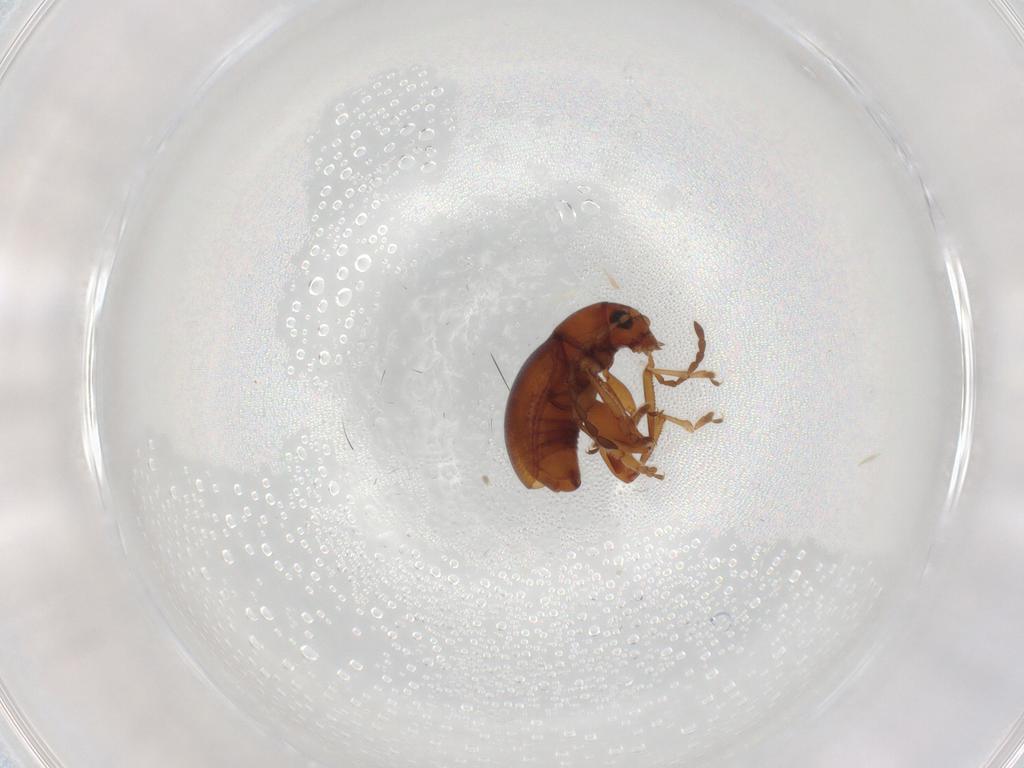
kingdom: Animalia
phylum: Arthropoda
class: Insecta
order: Coleoptera
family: Chrysomelidae
